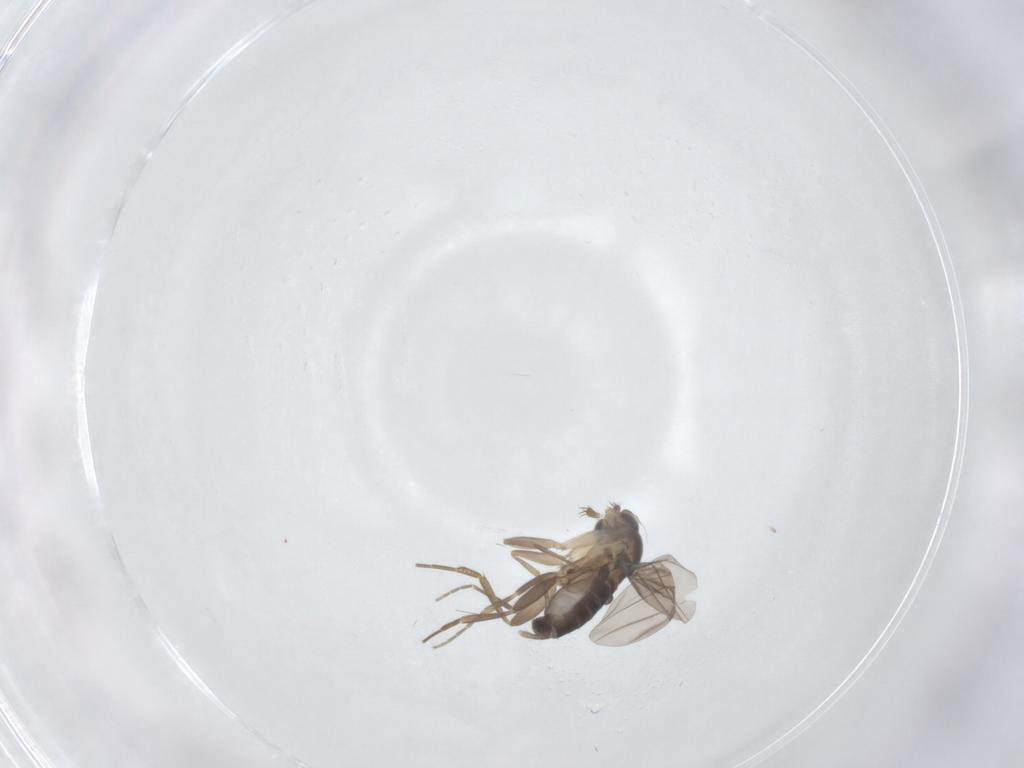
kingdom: Animalia
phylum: Arthropoda
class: Insecta
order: Diptera
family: Phoridae
